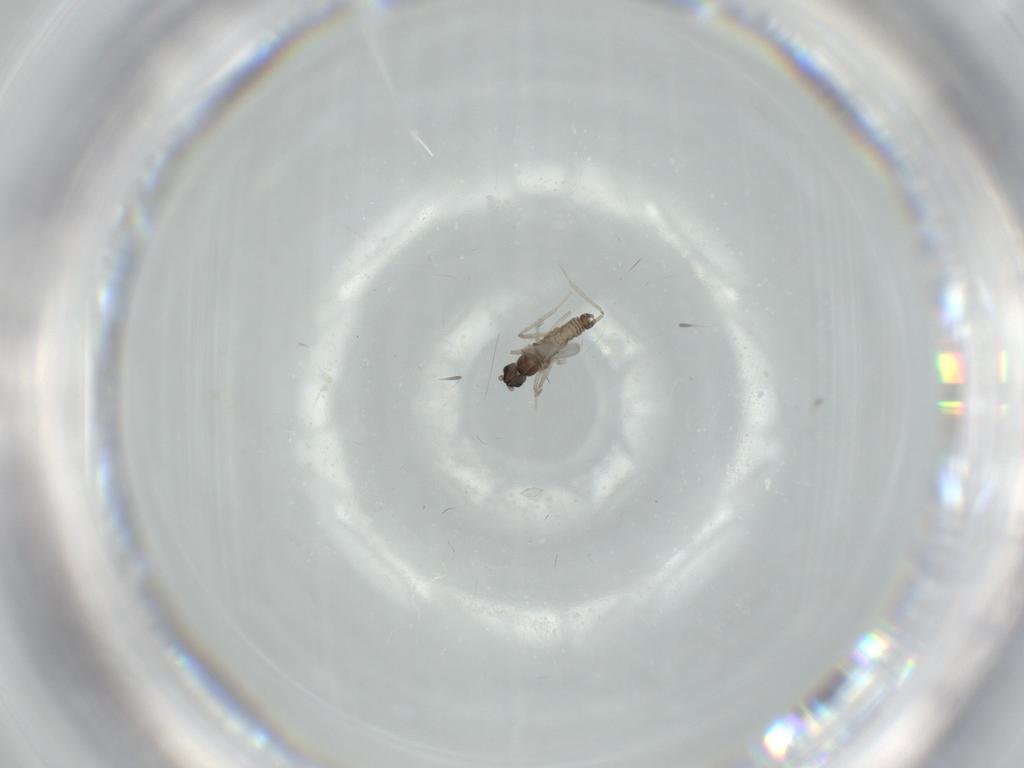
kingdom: Animalia
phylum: Arthropoda
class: Insecta
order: Diptera
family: Cecidomyiidae
